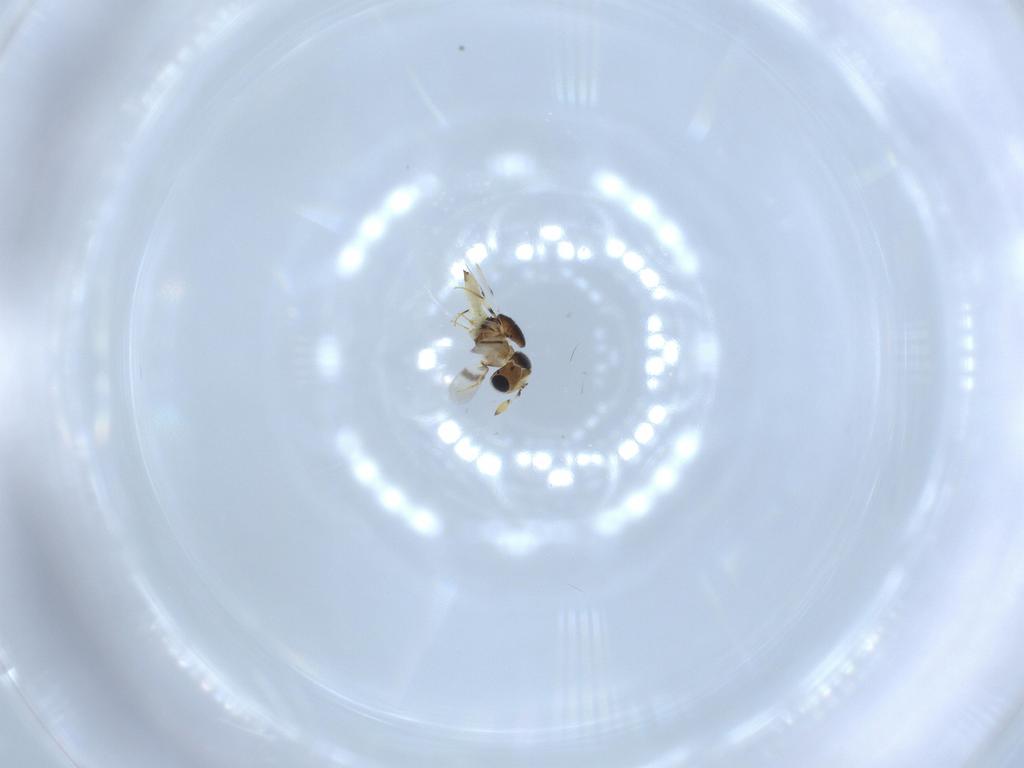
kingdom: Animalia
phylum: Arthropoda
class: Insecta
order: Hymenoptera
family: Scelionidae
